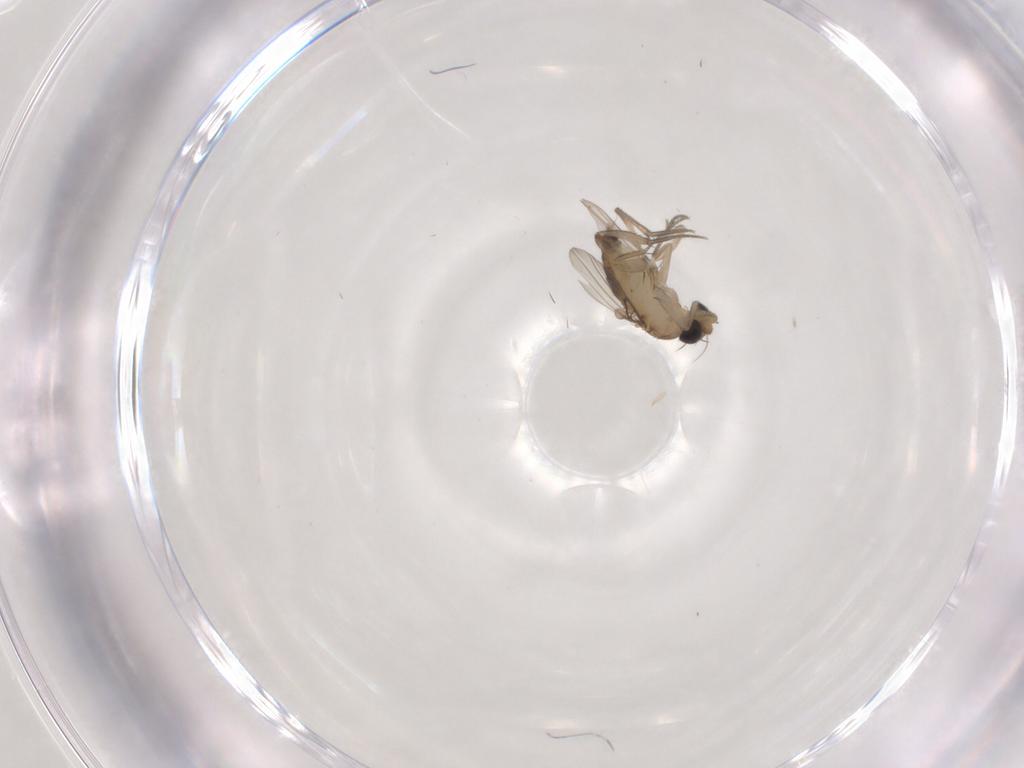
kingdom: Animalia
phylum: Arthropoda
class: Insecta
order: Diptera
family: Phoridae
